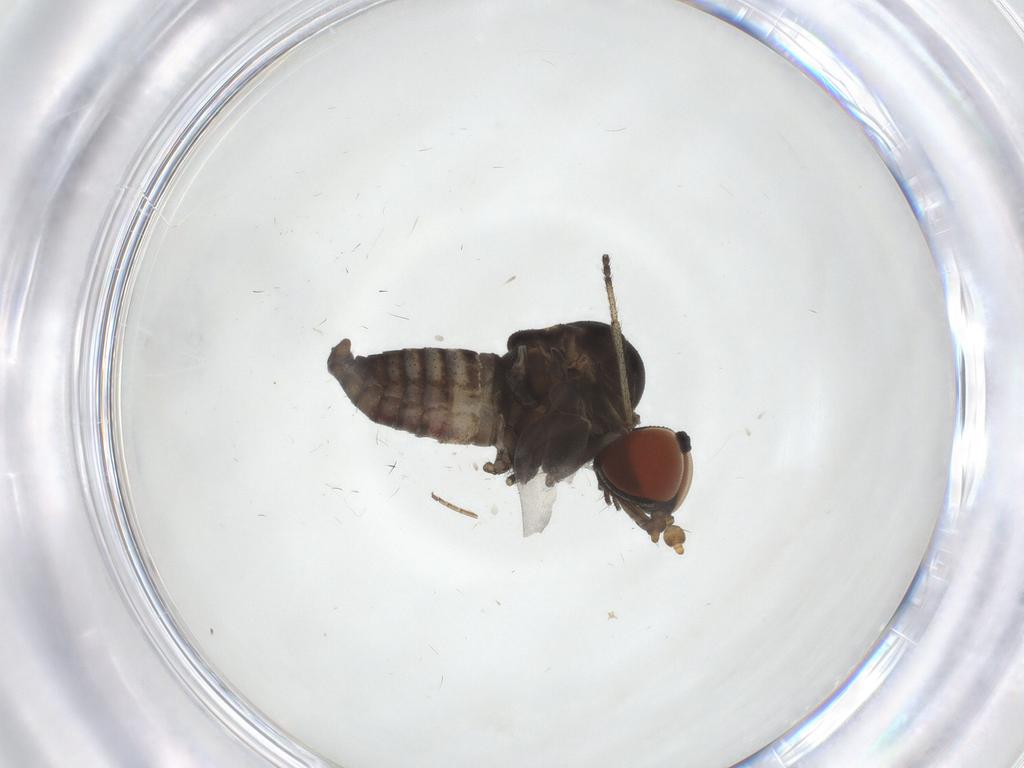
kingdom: Animalia
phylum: Arthropoda
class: Insecta
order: Diptera
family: Austroleptidae
